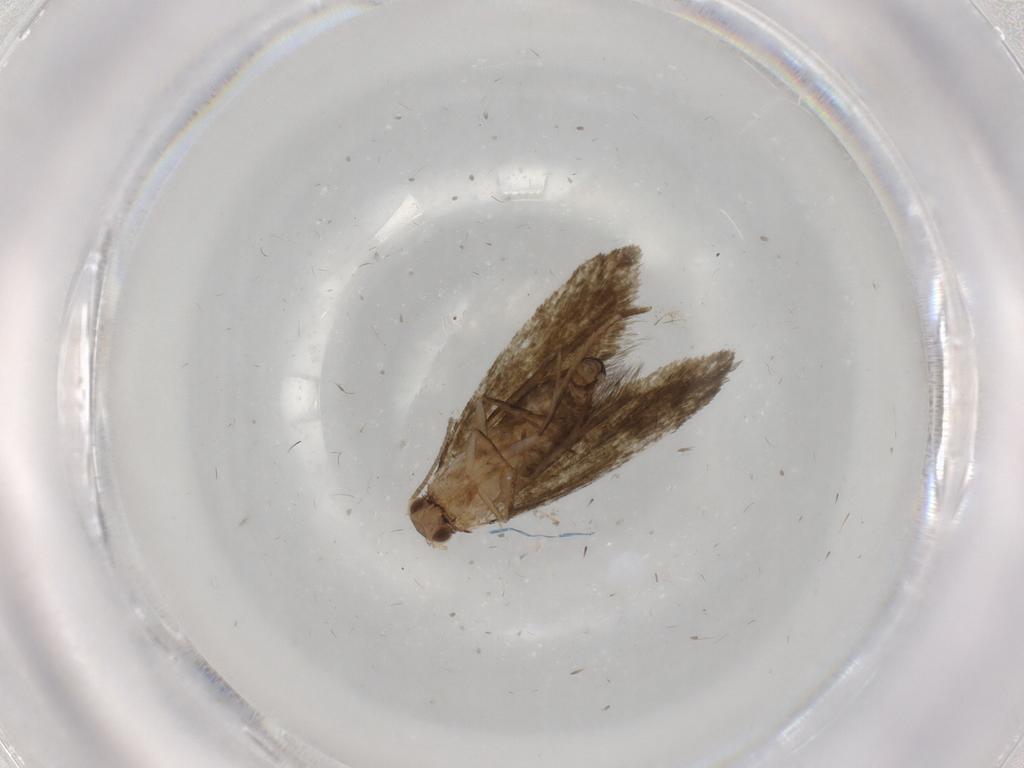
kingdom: Animalia
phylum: Arthropoda
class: Insecta
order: Lepidoptera
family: Tineidae
